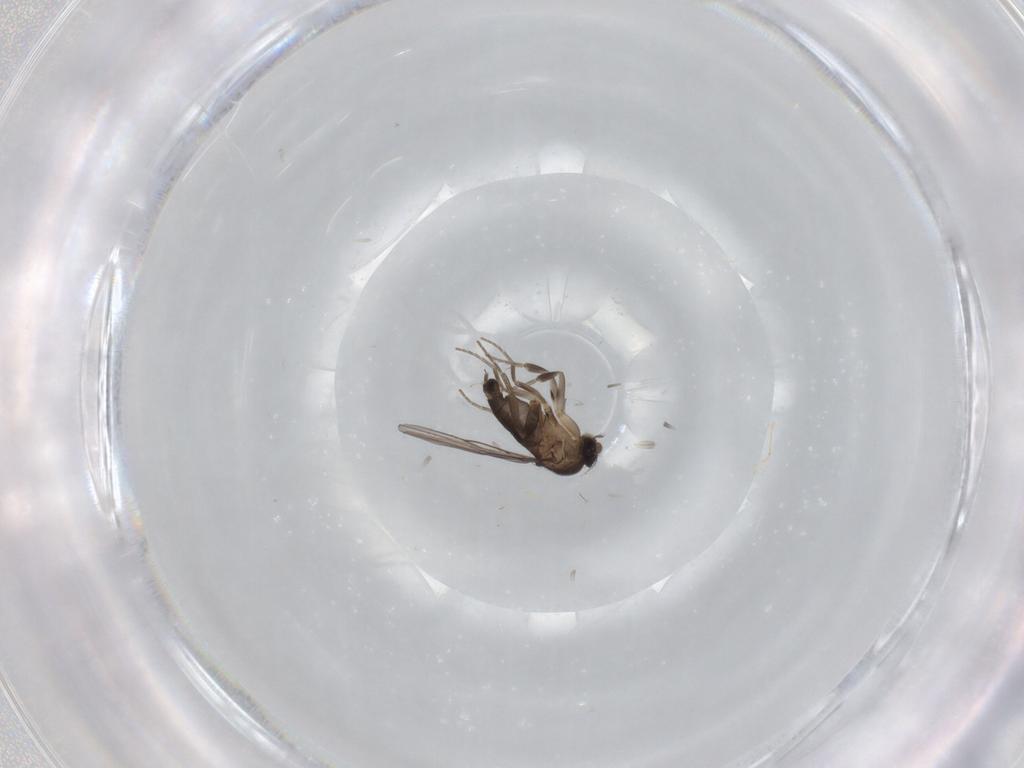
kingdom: Animalia
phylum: Arthropoda
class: Insecta
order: Diptera
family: Phoridae
